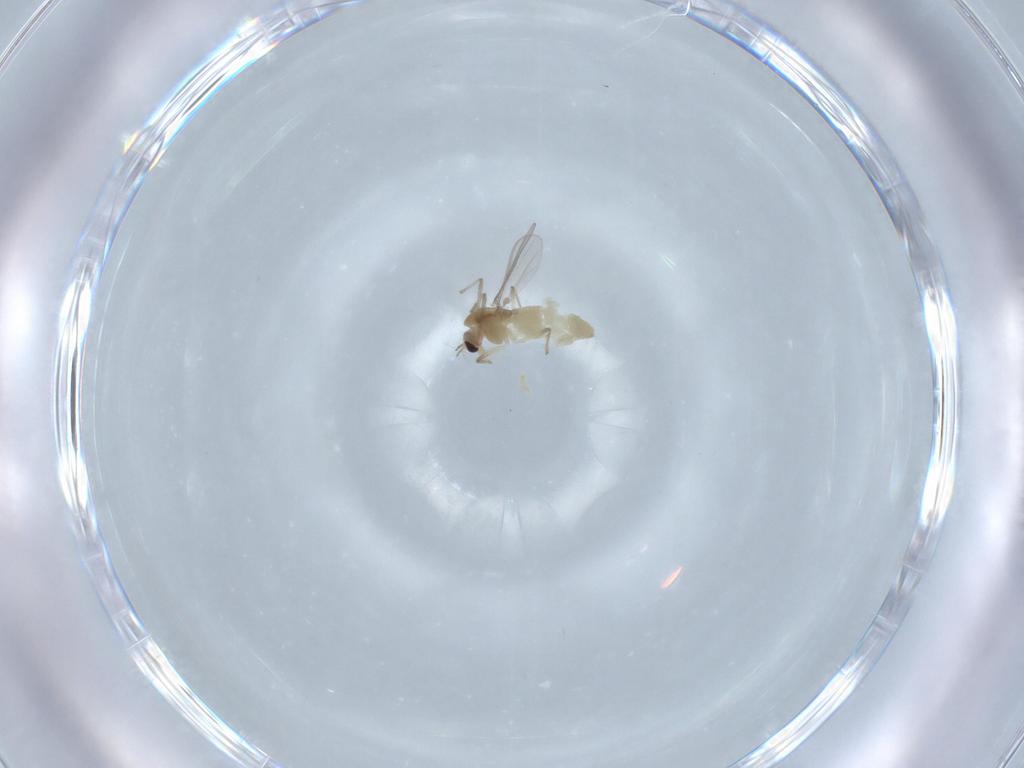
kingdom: Animalia
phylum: Arthropoda
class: Insecta
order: Diptera
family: Chironomidae
